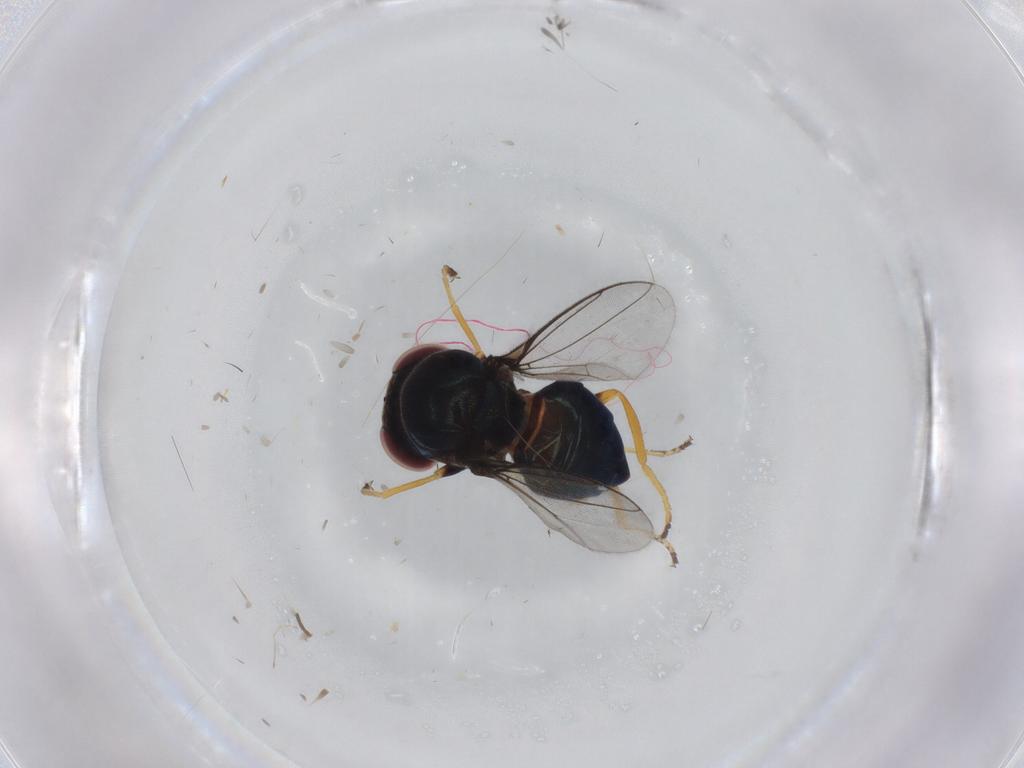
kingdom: Animalia
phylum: Arthropoda
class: Insecta
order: Diptera
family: Chloropidae
